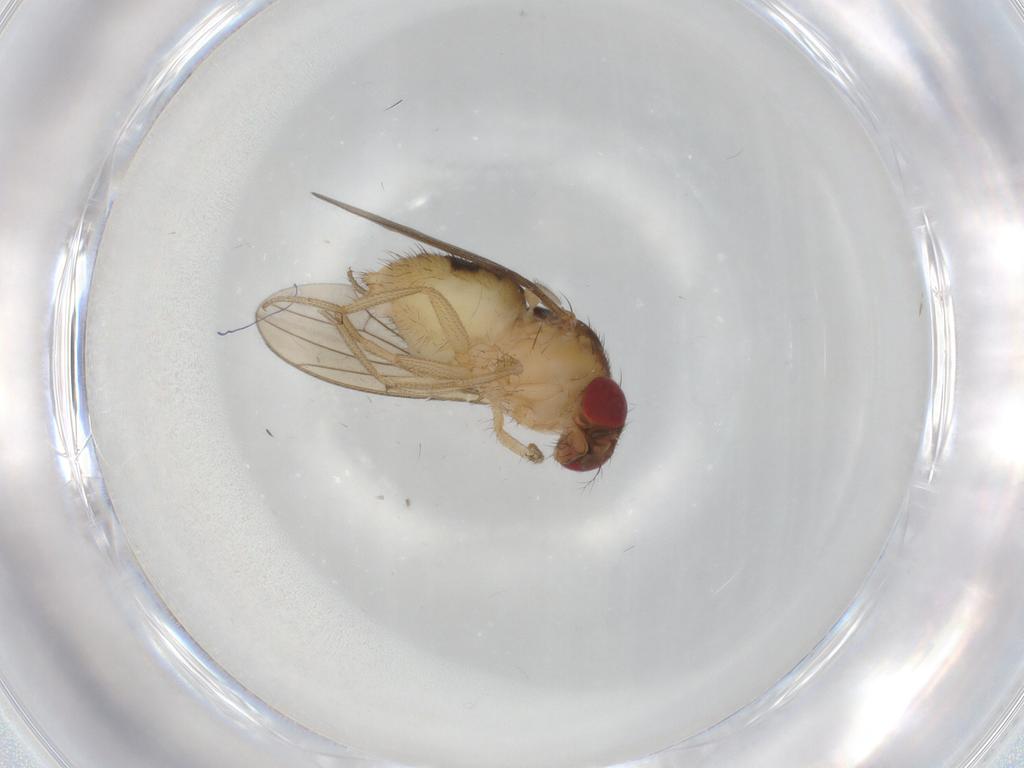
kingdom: Animalia
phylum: Arthropoda
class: Insecta
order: Diptera
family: Drosophilidae
